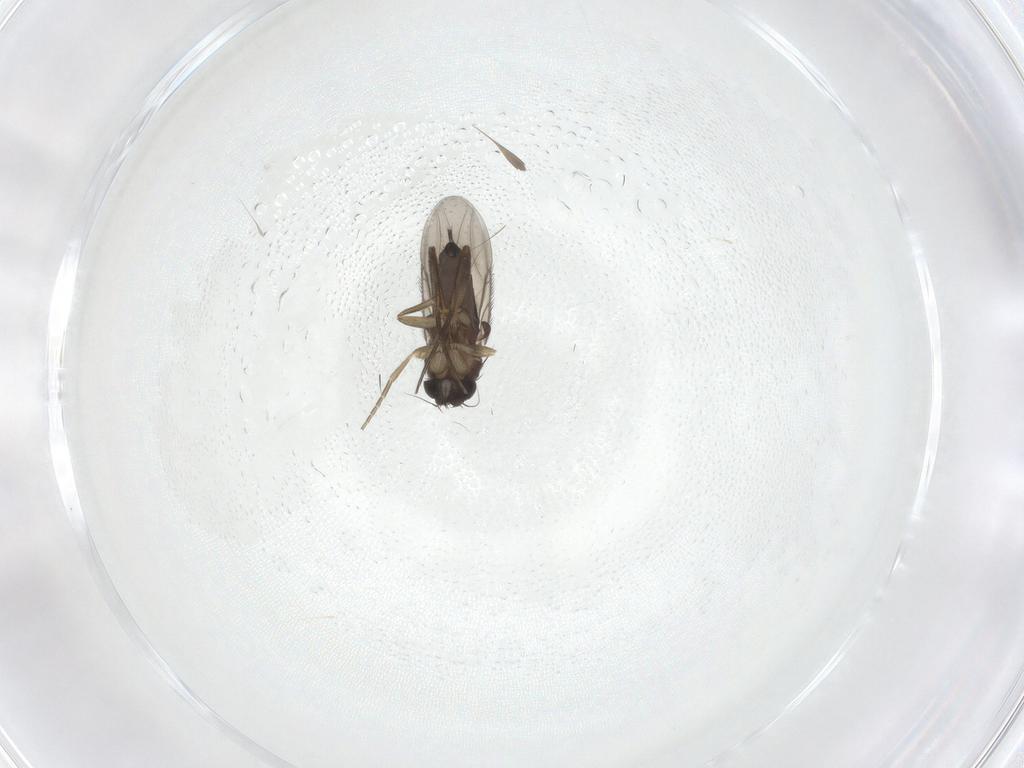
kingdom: Animalia
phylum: Arthropoda
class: Insecta
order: Diptera
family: Phoridae
